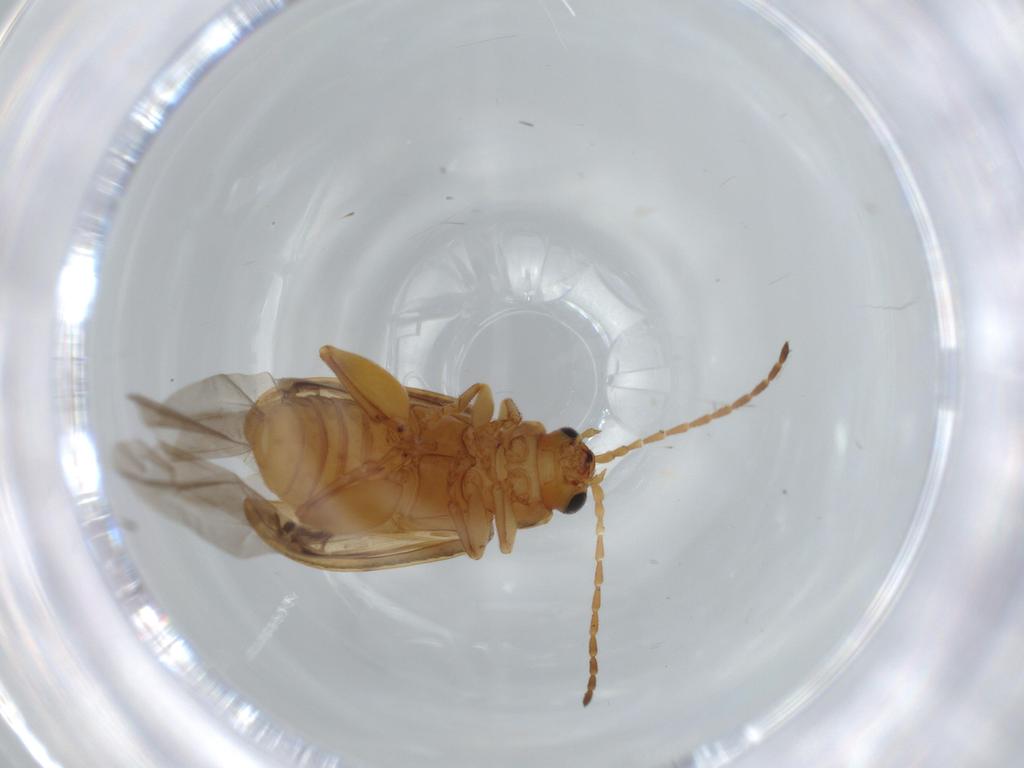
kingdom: Animalia
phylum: Arthropoda
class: Insecta
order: Coleoptera
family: Chrysomelidae
